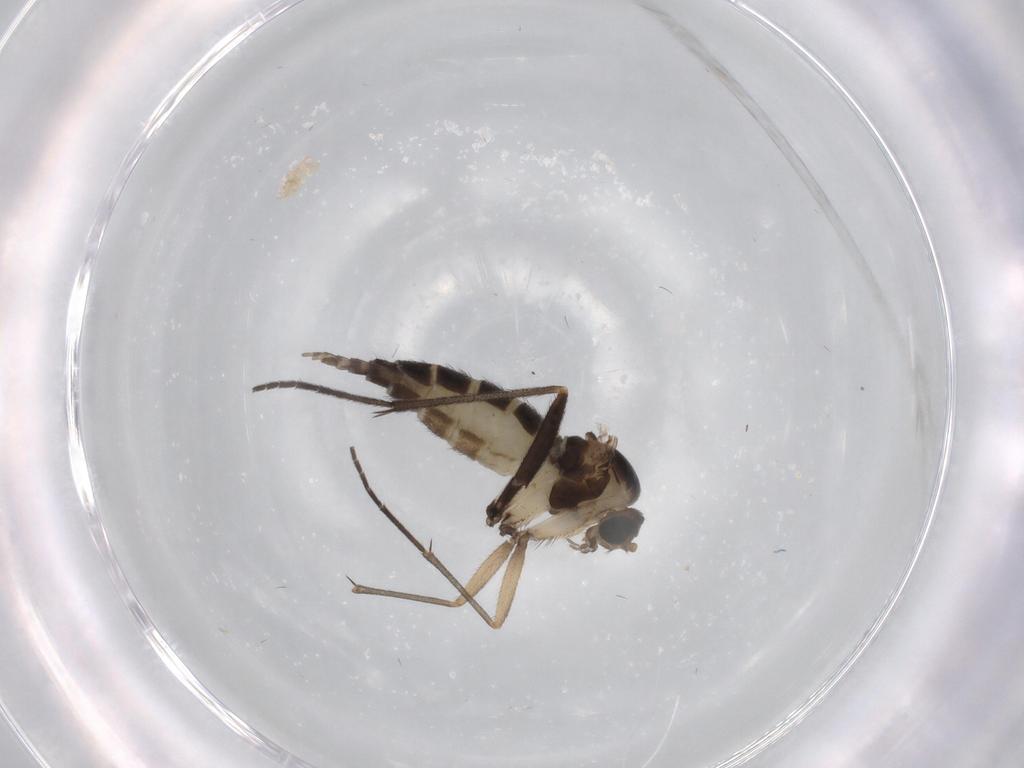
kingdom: Animalia
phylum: Arthropoda
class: Insecta
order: Diptera
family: Sciaridae
